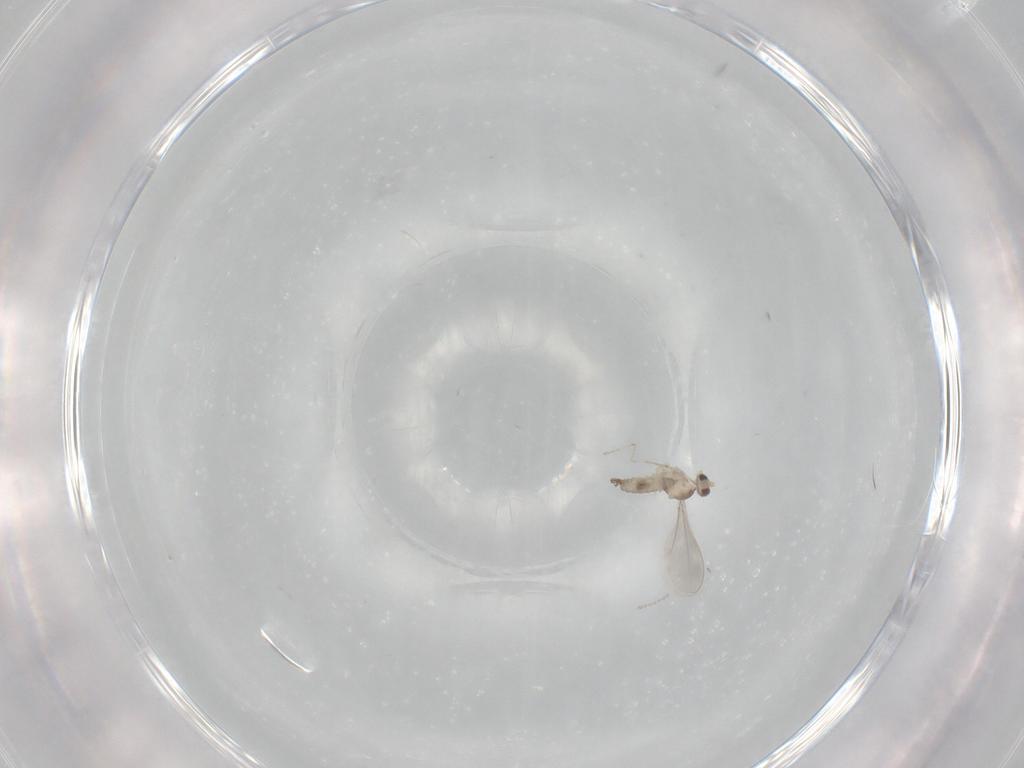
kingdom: Animalia
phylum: Arthropoda
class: Insecta
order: Diptera
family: Cecidomyiidae
